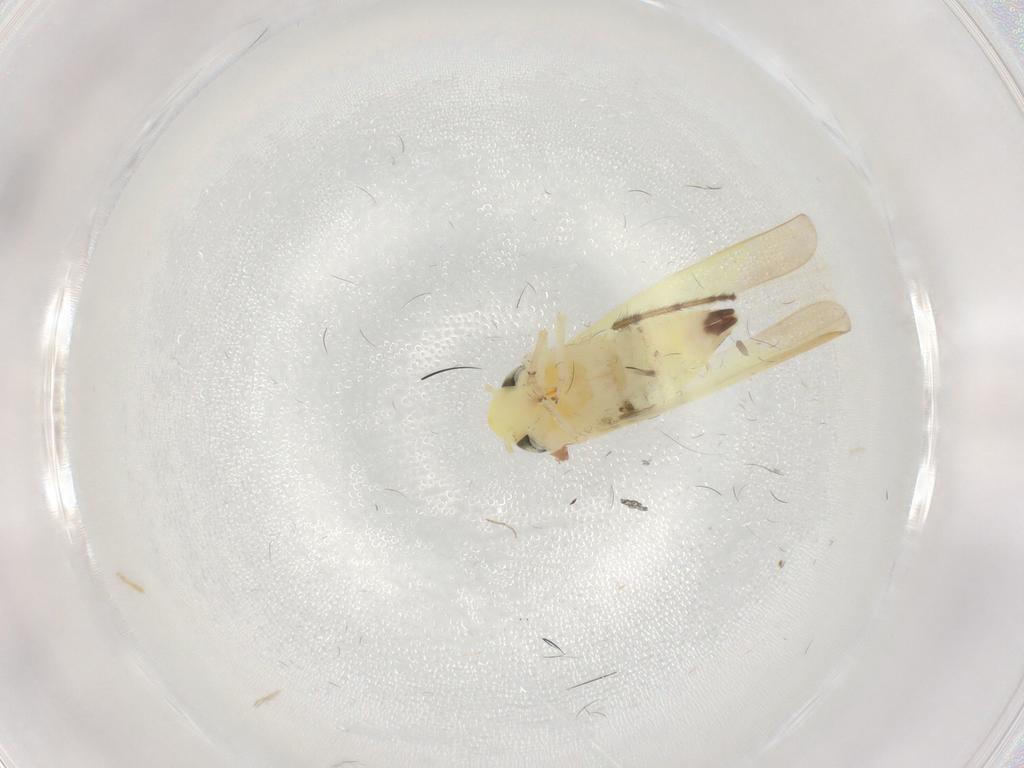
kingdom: Animalia
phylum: Arthropoda
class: Insecta
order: Hemiptera
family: Cicadellidae
